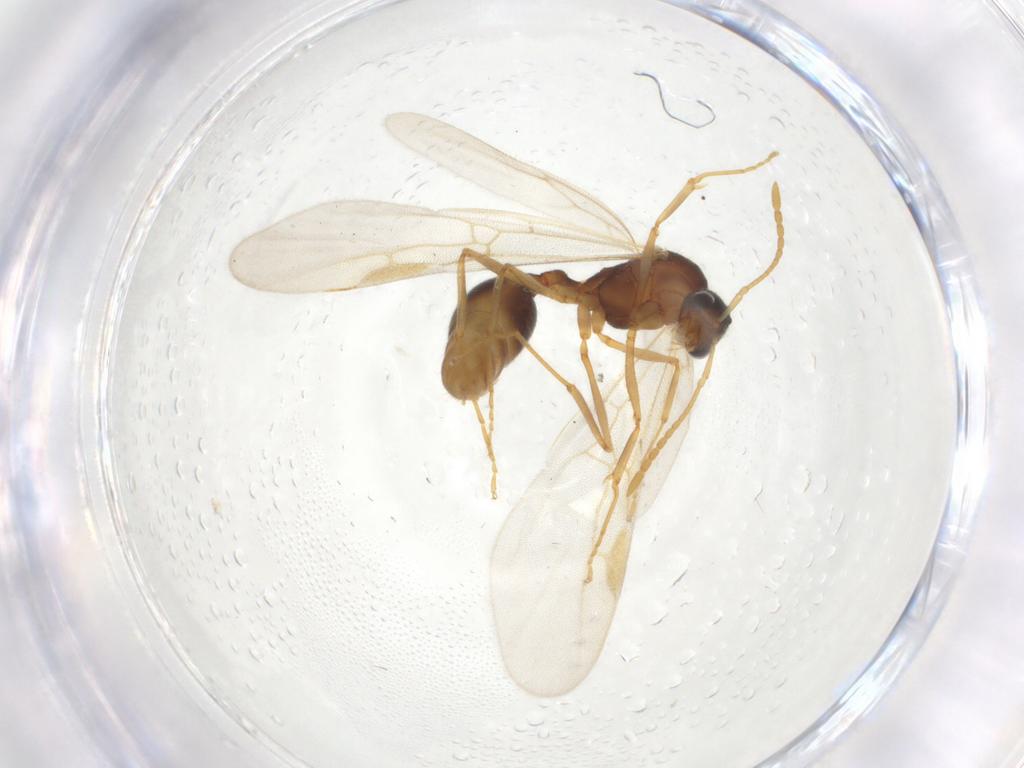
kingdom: Animalia
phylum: Arthropoda
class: Insecta
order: Hymenoptera
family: Formicidae
